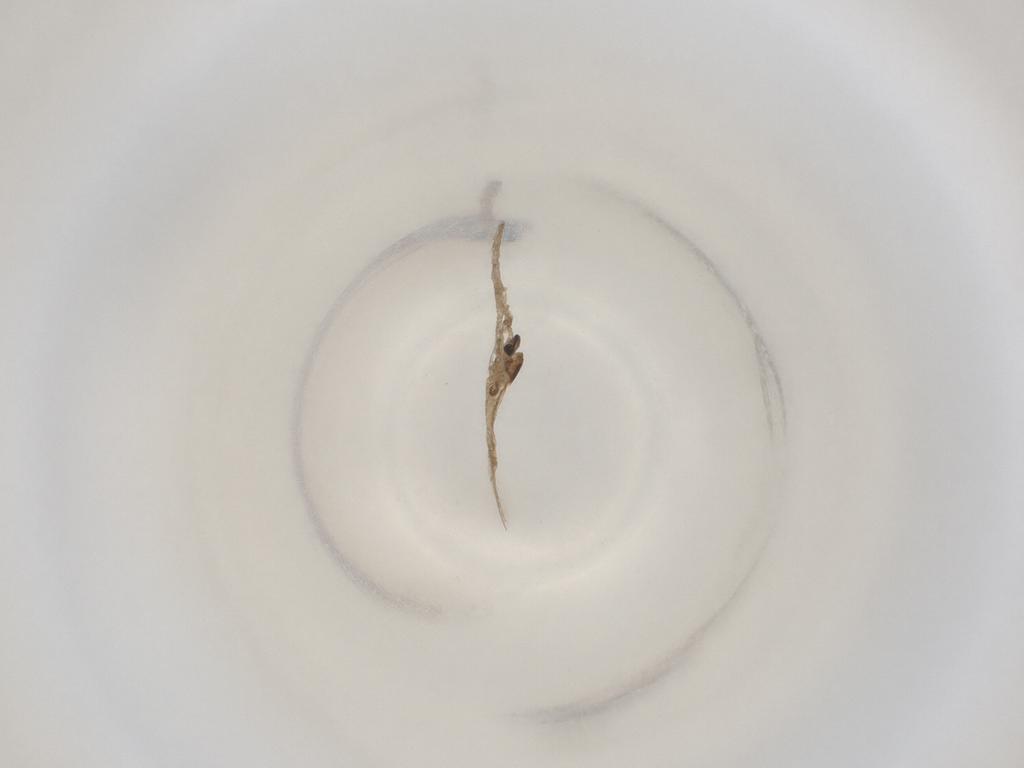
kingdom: Animalia
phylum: Arthropoda
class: Insecta
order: Diptera
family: Cecidomyiidae
